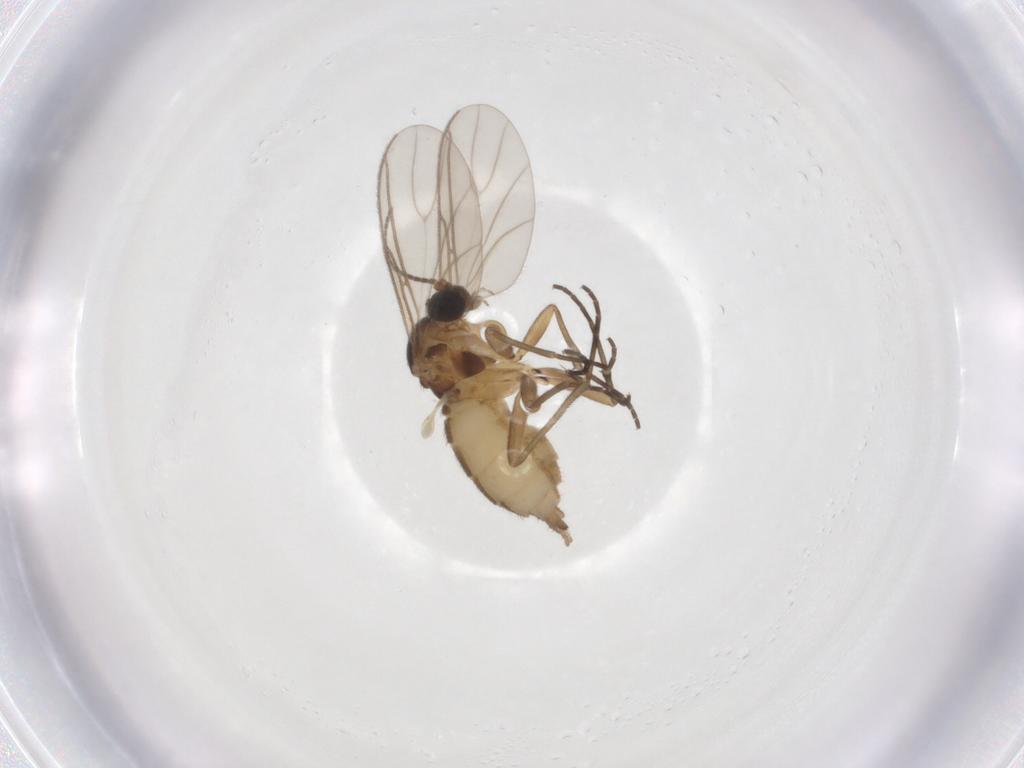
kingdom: Animalia
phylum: Arthropoda
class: Insecta
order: Diptera
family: Sciaridae
